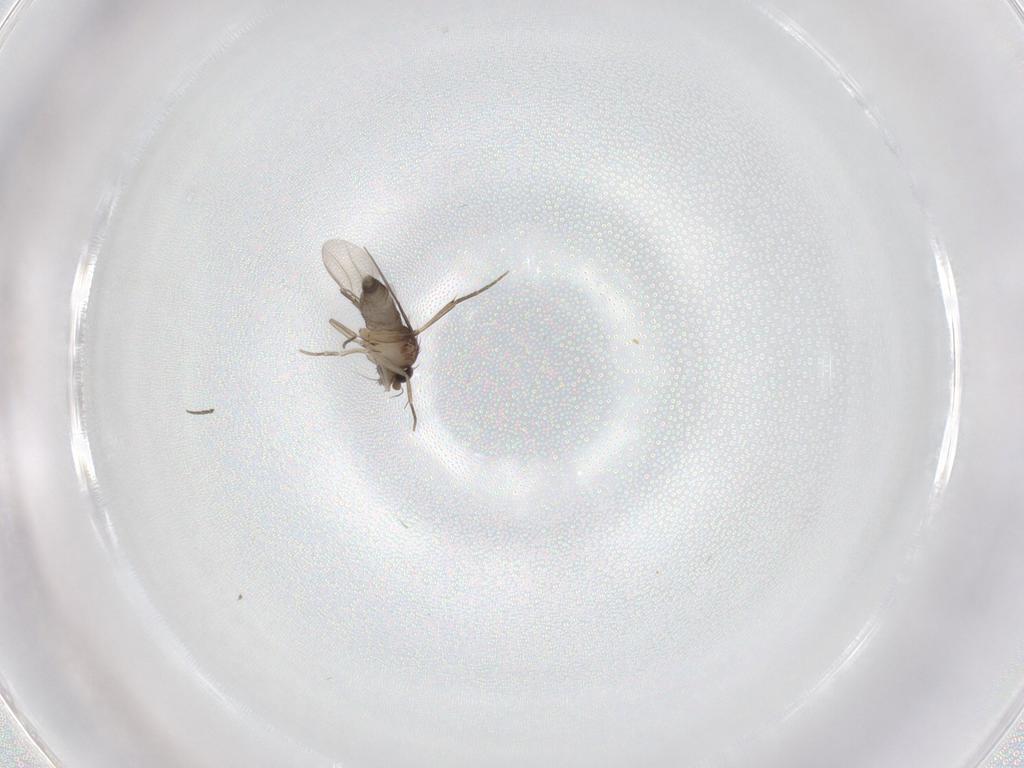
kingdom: Animalia
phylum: Arthropoda
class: Insecta
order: Diptera
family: Phoridae
